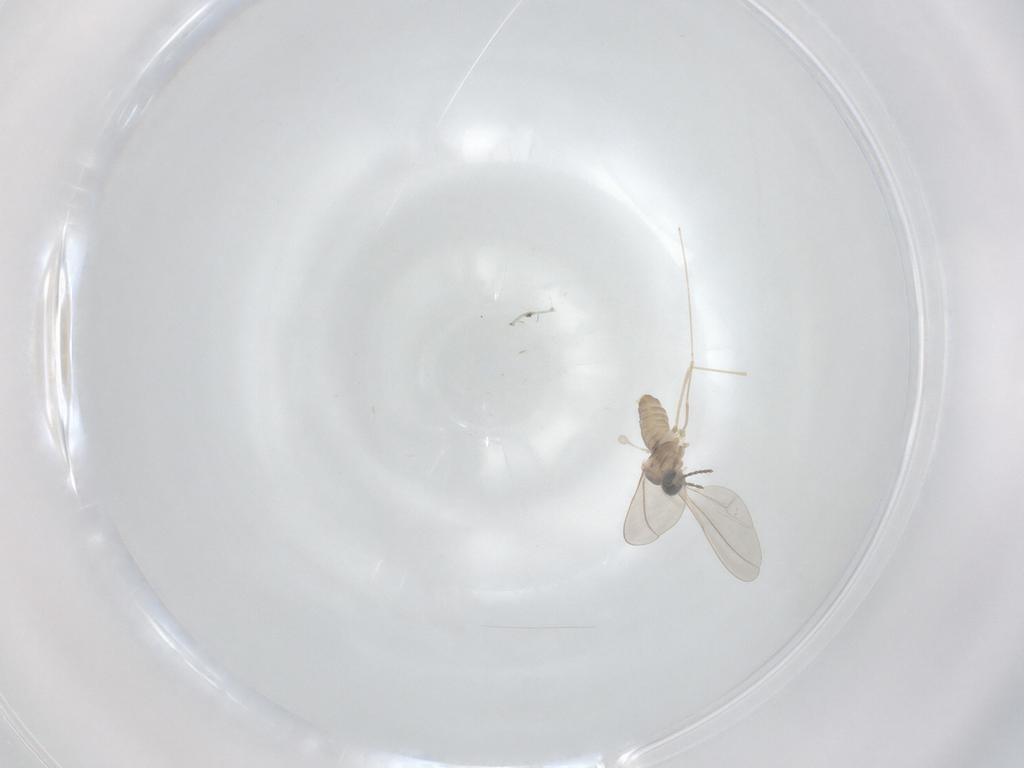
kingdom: Animalia
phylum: Arthropoda
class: Insecta
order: Diptera
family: Cecidomyiidae
